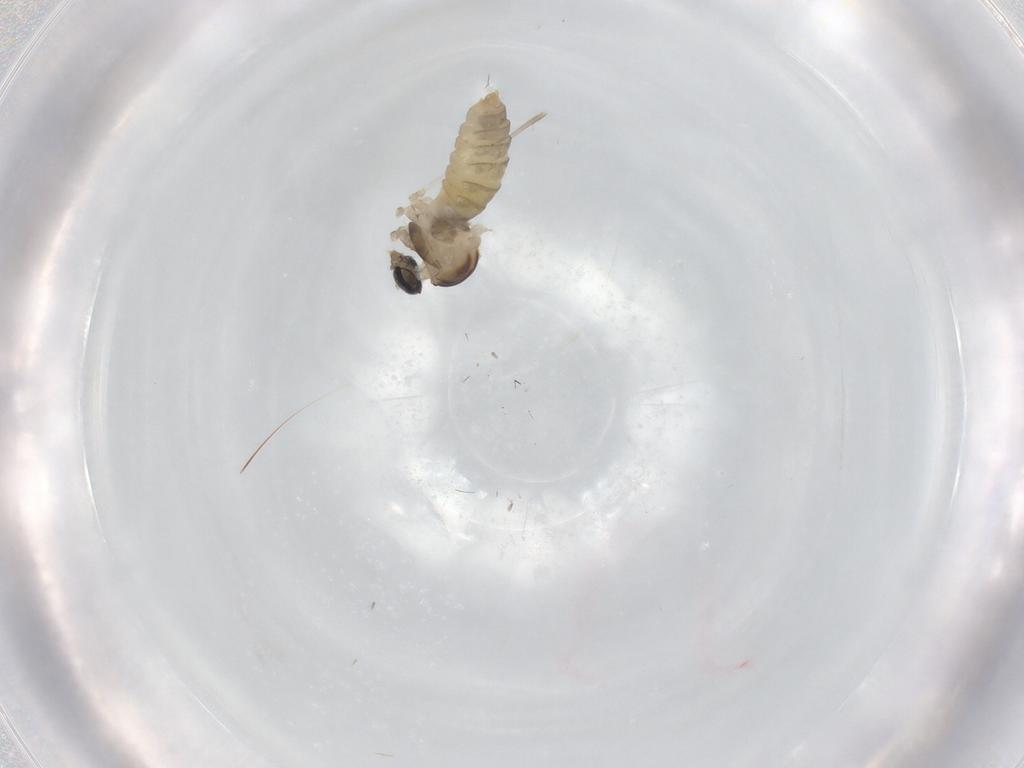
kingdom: Animalia
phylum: Arthropoda
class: Insecta
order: Diptera
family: Cecidomyiidae
